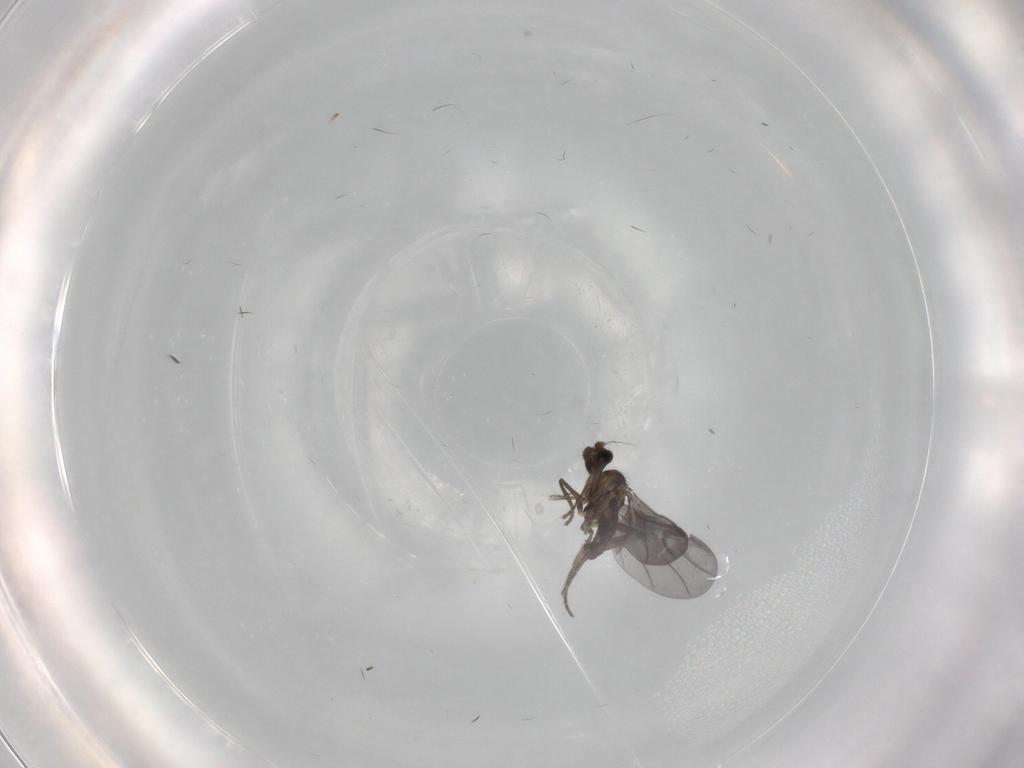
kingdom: Animalia
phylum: Arthropoda
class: Insecta
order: Diptera
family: Phoridae
